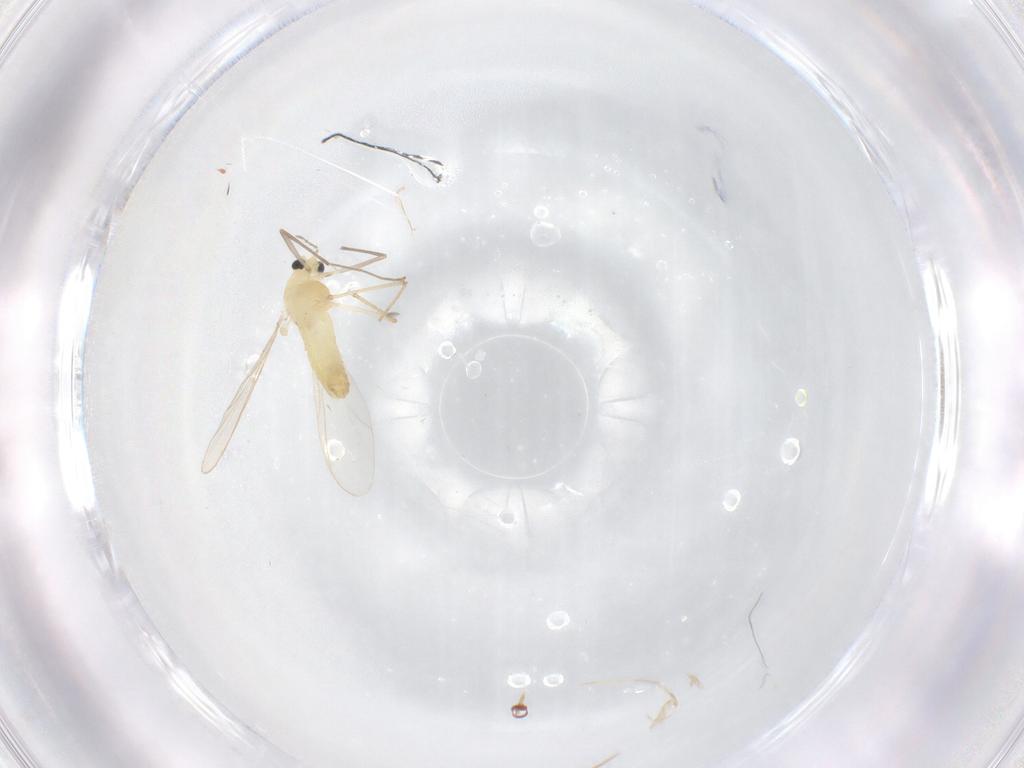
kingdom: Animalia
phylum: Arthropoda
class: Insecta
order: Diptera
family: Chironomidae
